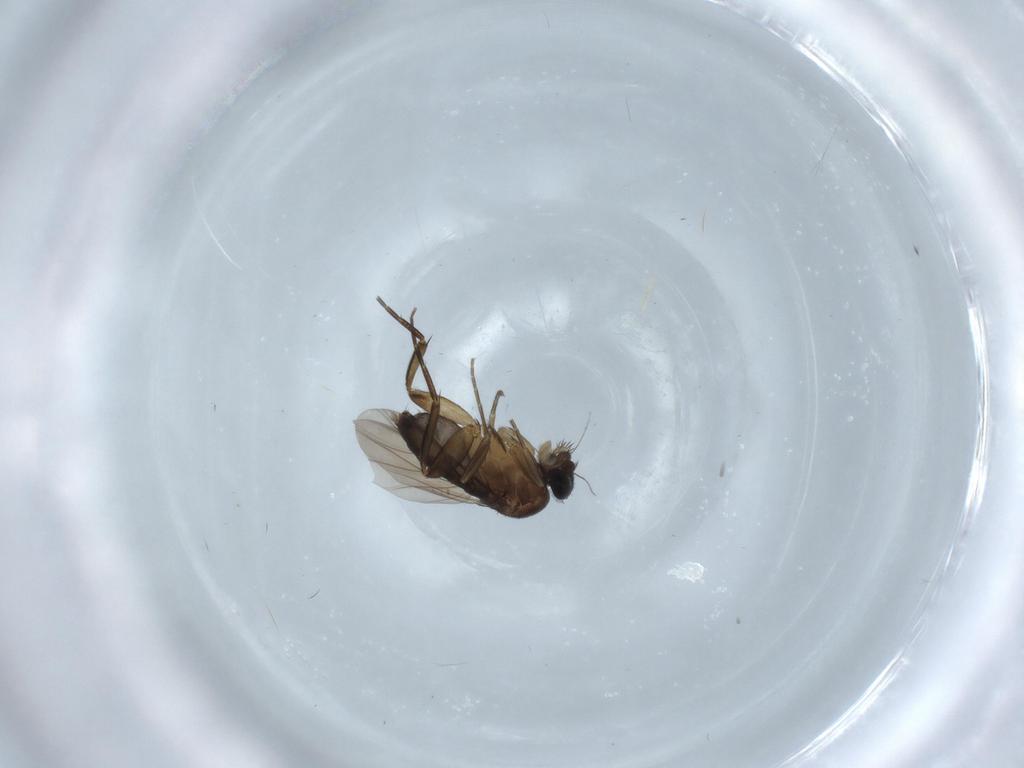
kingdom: Animalia
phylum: Arthropoda
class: Insecta
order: Diptera
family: Phoridae
